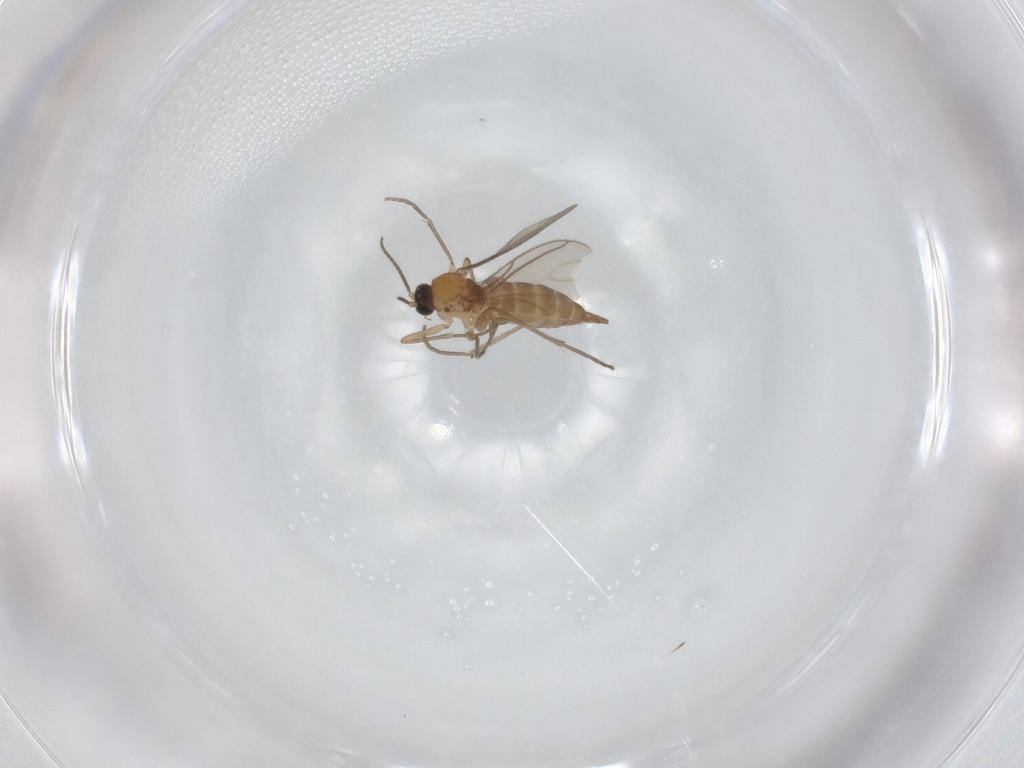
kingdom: Animalia
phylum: Arthropoda
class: Insecta
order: Diptera
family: Sciaridae
